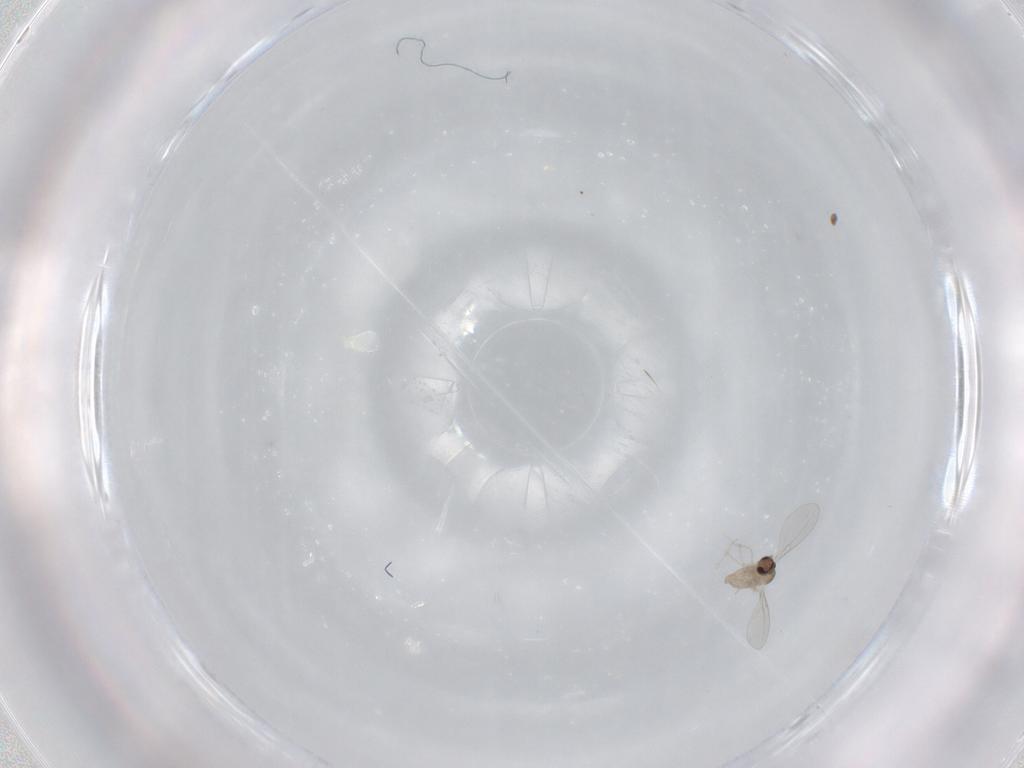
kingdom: Animalia
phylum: Arthropoda
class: Insecta
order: Diptera
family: Cecidomyiidae
